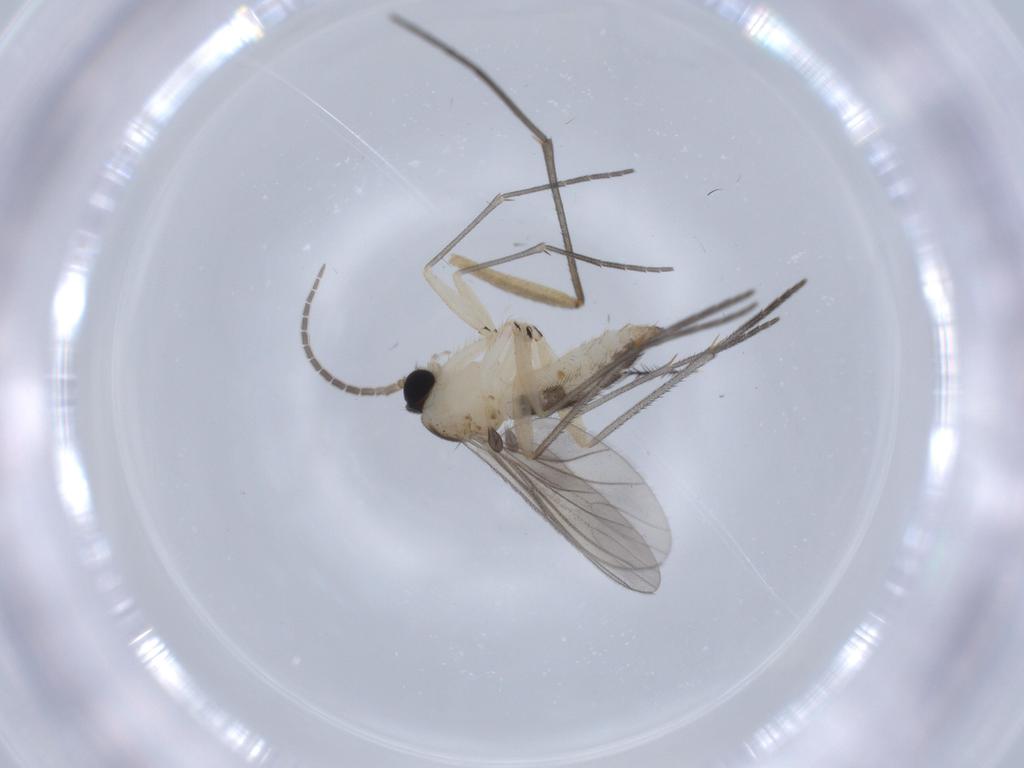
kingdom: Animalia
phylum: Arthropoda
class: Insecta
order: Diptera
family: Sciaridae
